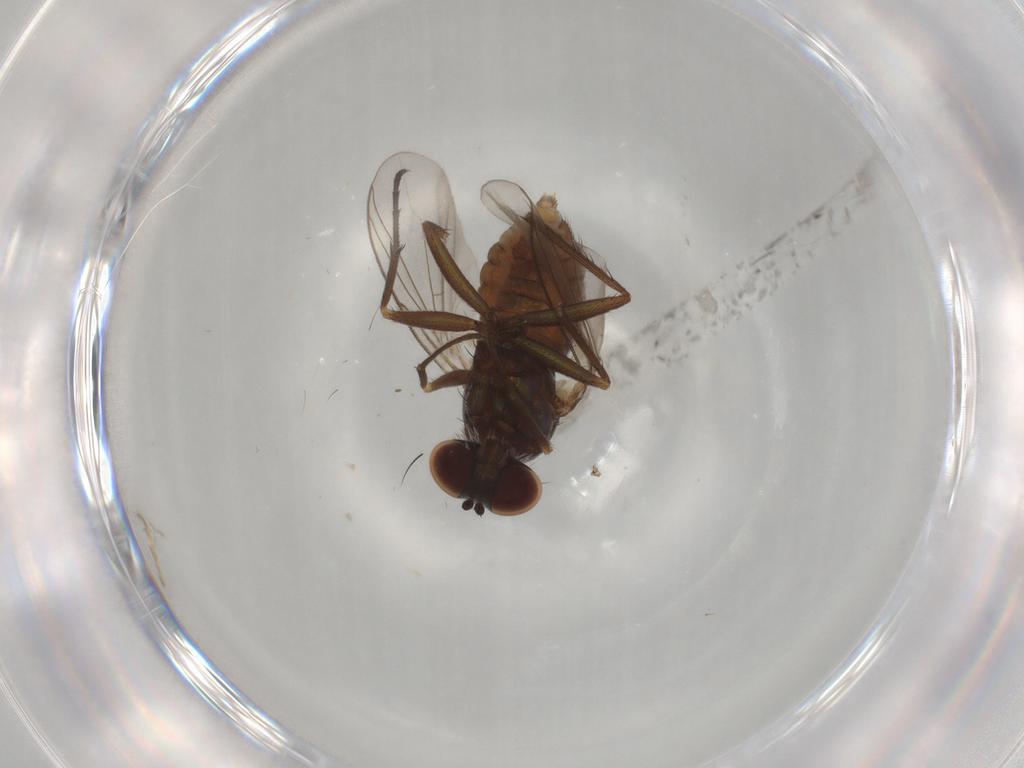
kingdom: Animalia
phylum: Arthropoda
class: Insecta
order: Diptera
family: Dolichopodidae
